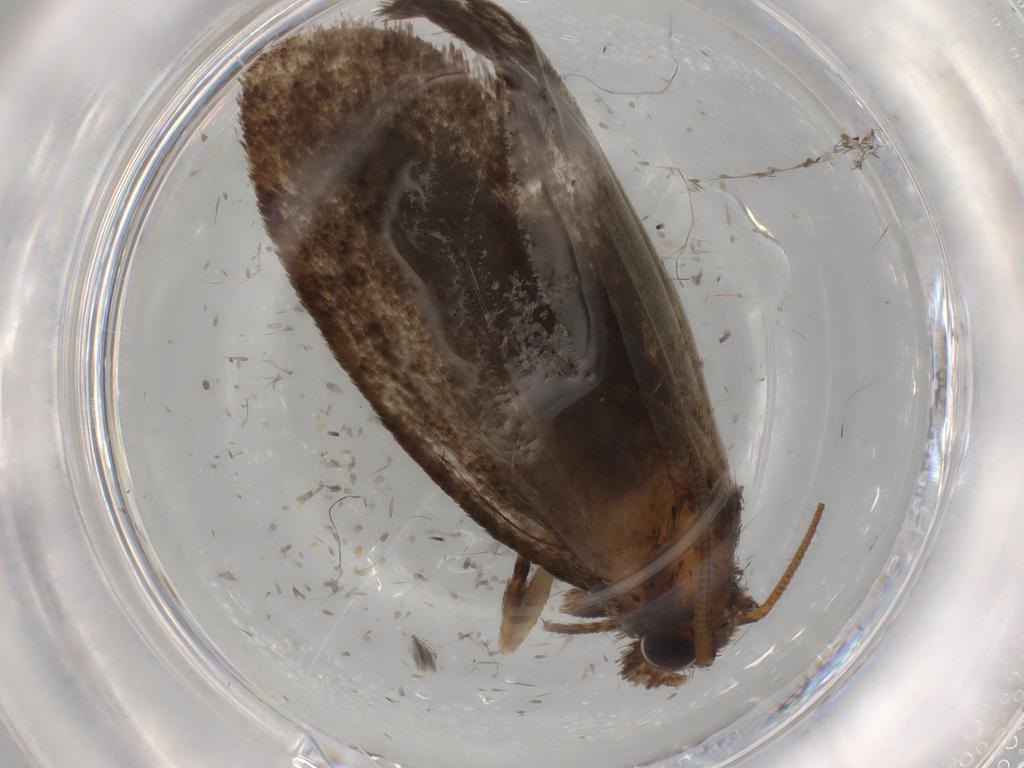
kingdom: Animalia
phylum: Arthropoda
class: Insecta
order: Lepidoptera
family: Tineidae
